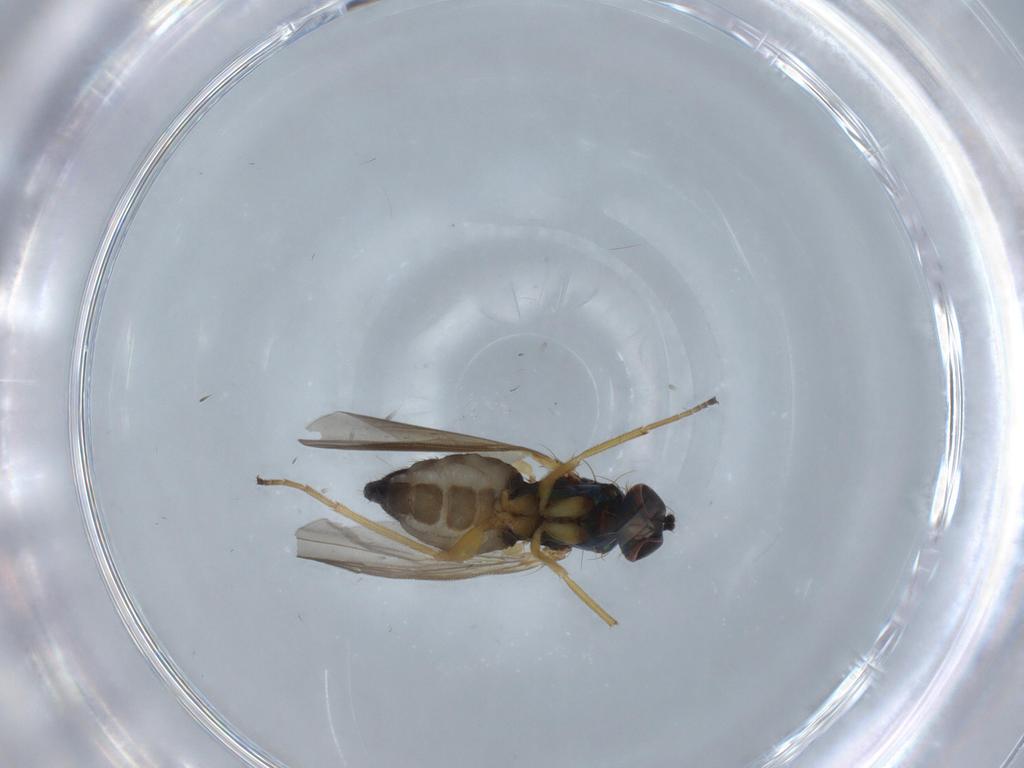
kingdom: Animalia
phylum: Arthropoda
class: Insecta
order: Diptera
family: Dolichopodidae
